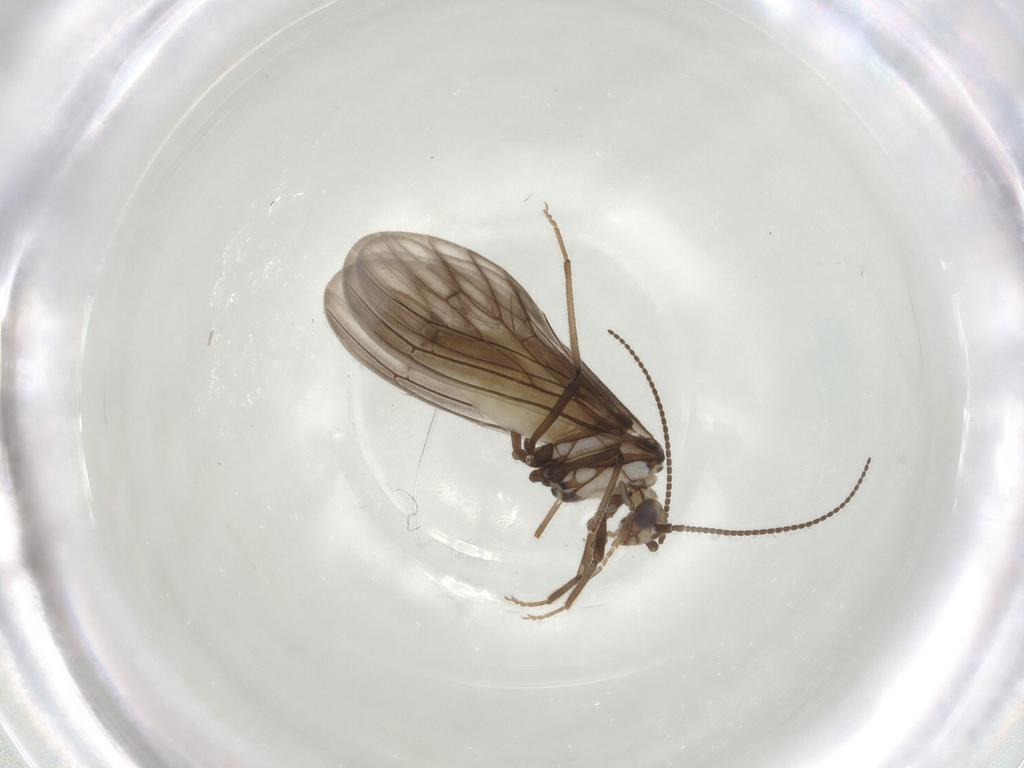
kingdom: Animalia
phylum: Arthropoda
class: Insecta
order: Neuroptera
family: Coniopterygidae
